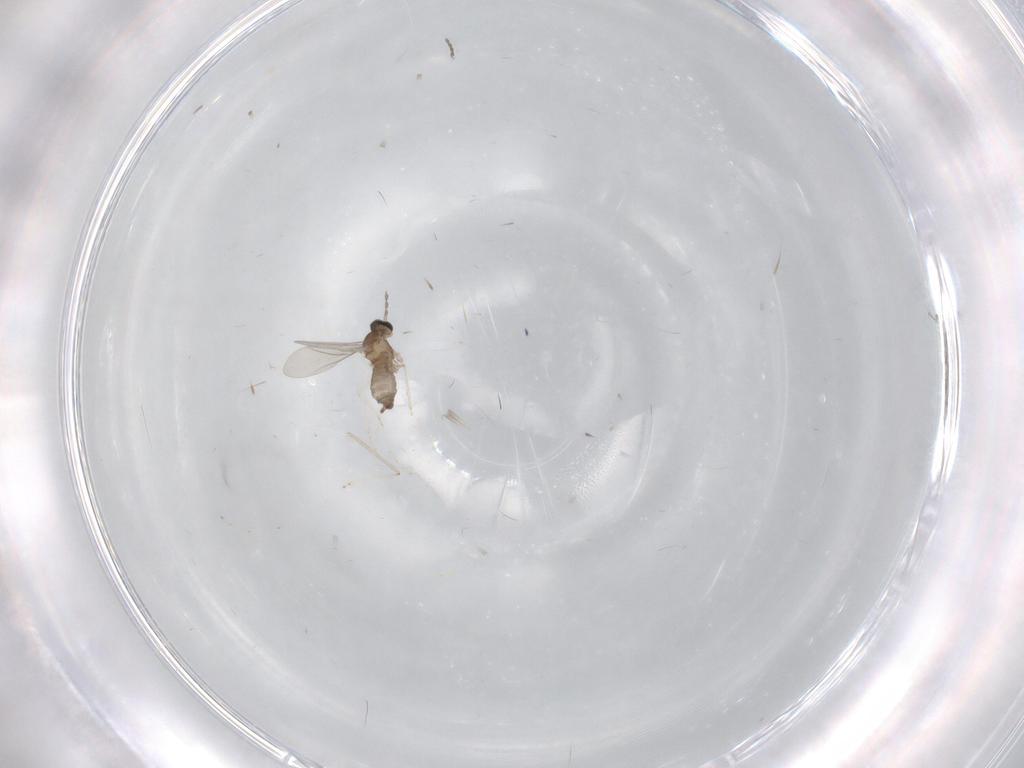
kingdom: Animalia
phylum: Arthropoda
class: Insecta
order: Diptera
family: Cecidomyiidae
